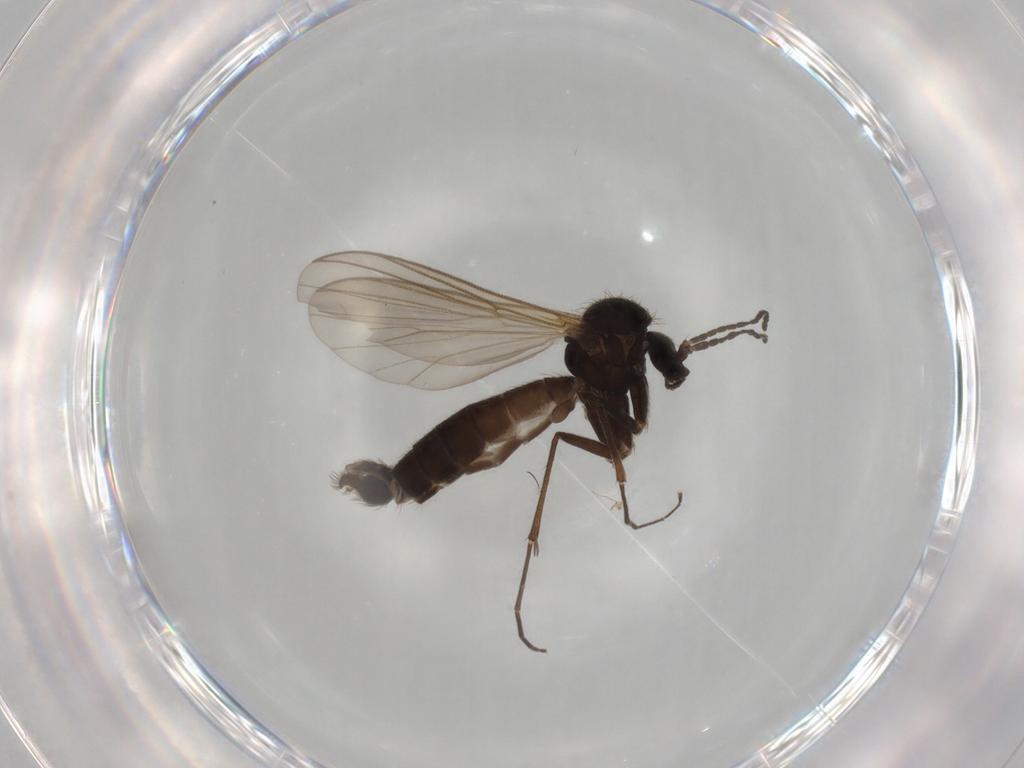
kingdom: Animalia
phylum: Arthropoda
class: Insecta
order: Diptera
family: Mycetophilidae
